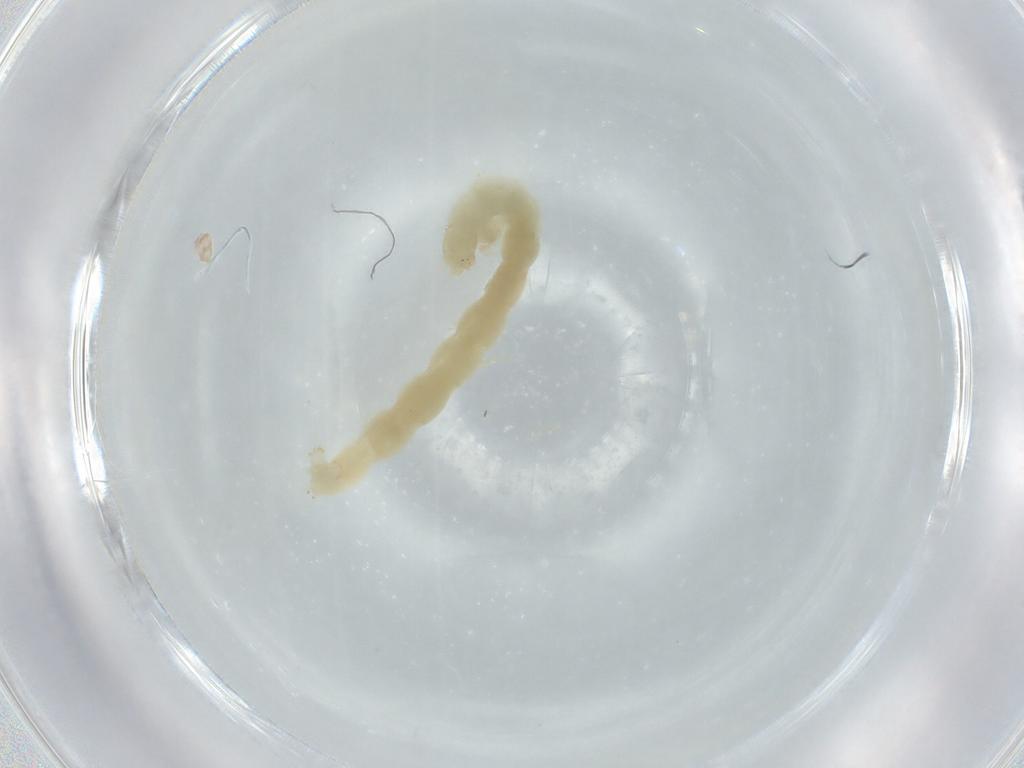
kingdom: Animalia
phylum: Arthropoda
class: Insecta
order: Diptera
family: Chironomidae
